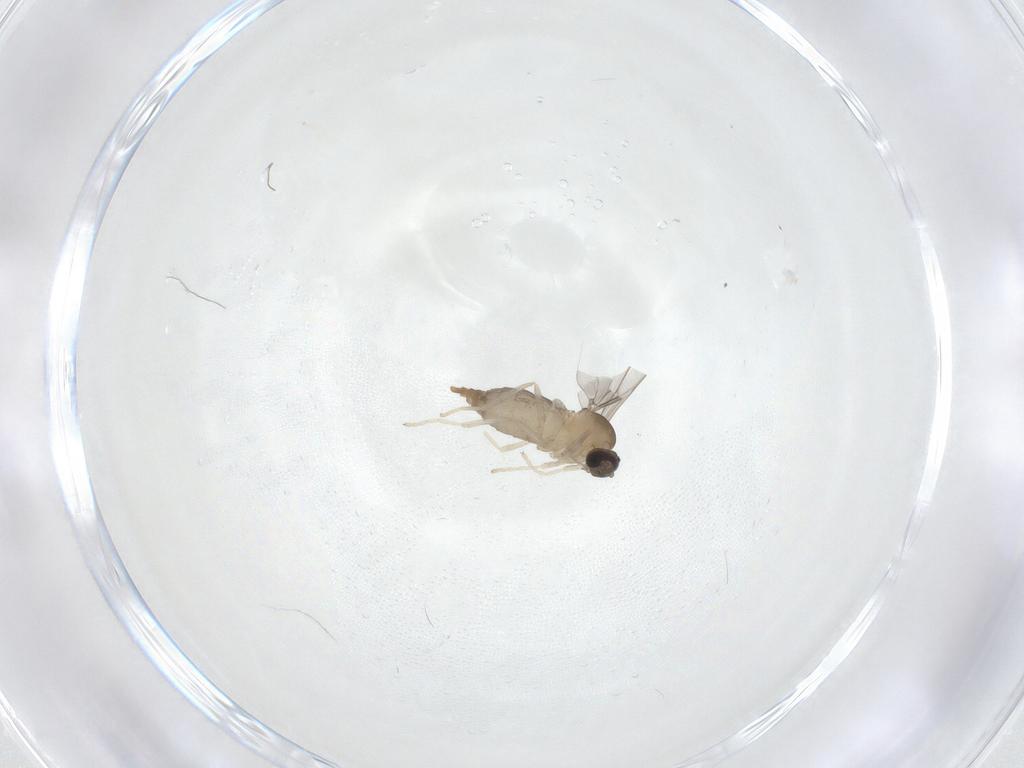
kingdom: Animalia
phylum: Arthropoda
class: Insecta
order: Diptera
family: Cecidomyiidae
